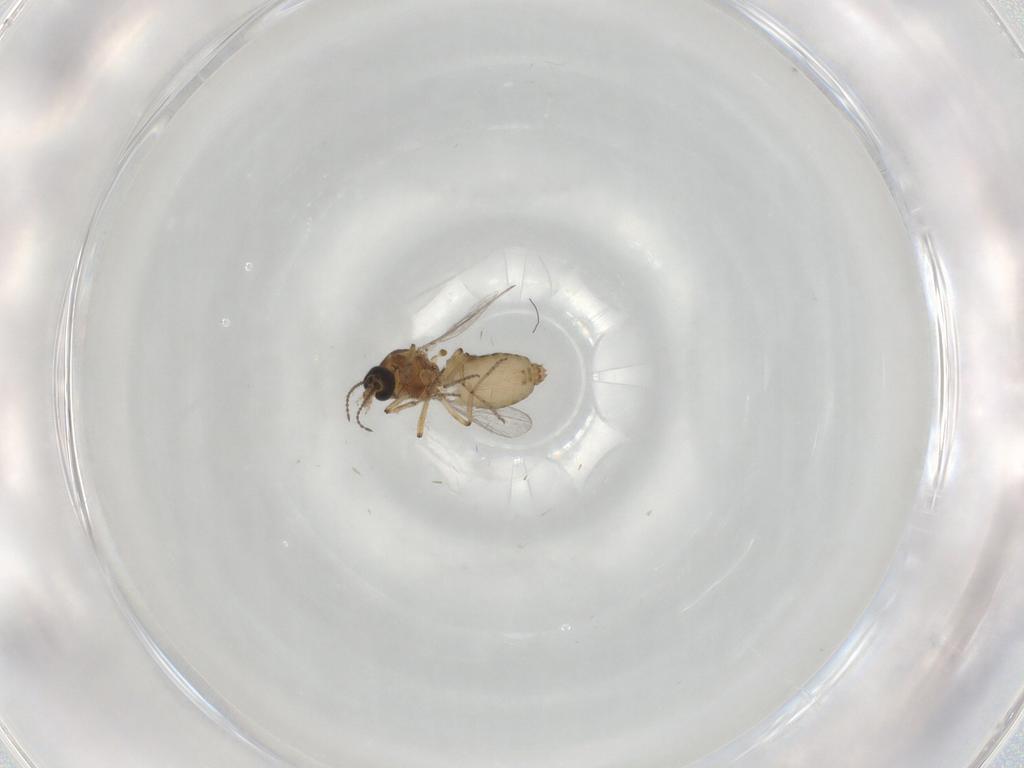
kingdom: Animalia
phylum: Arthropoda
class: Insecta
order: Diptera
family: Ceratopogonidae
